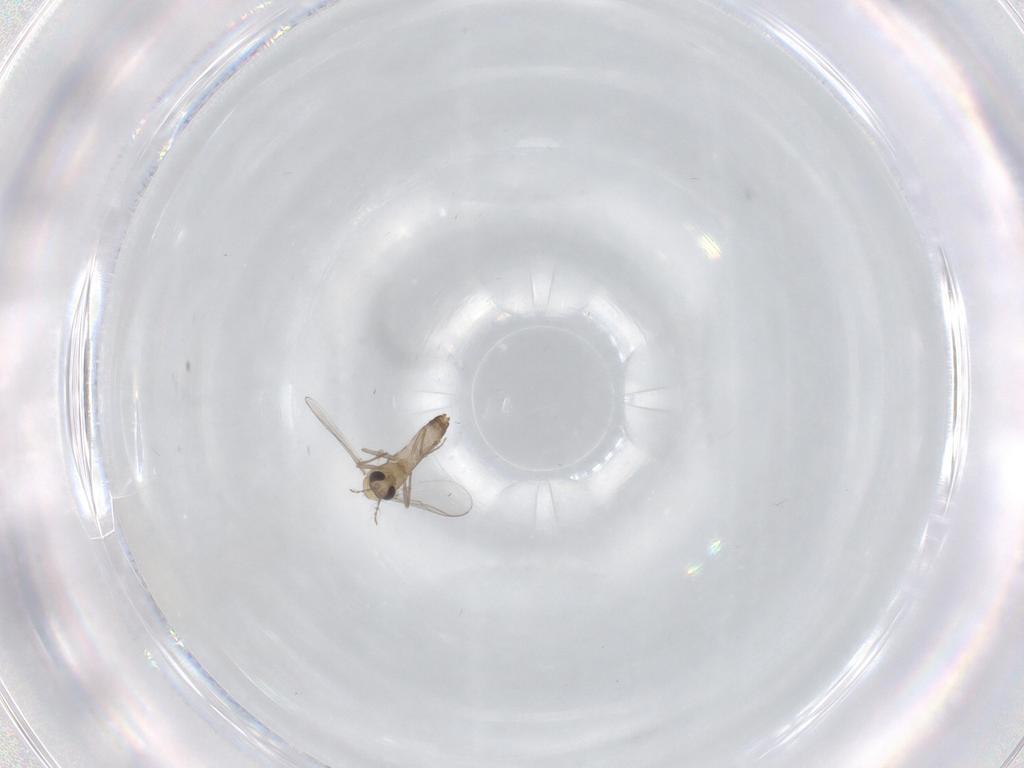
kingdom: Animalia
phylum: Arthropoda
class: Insecta
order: Diptera
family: Chironomidae
